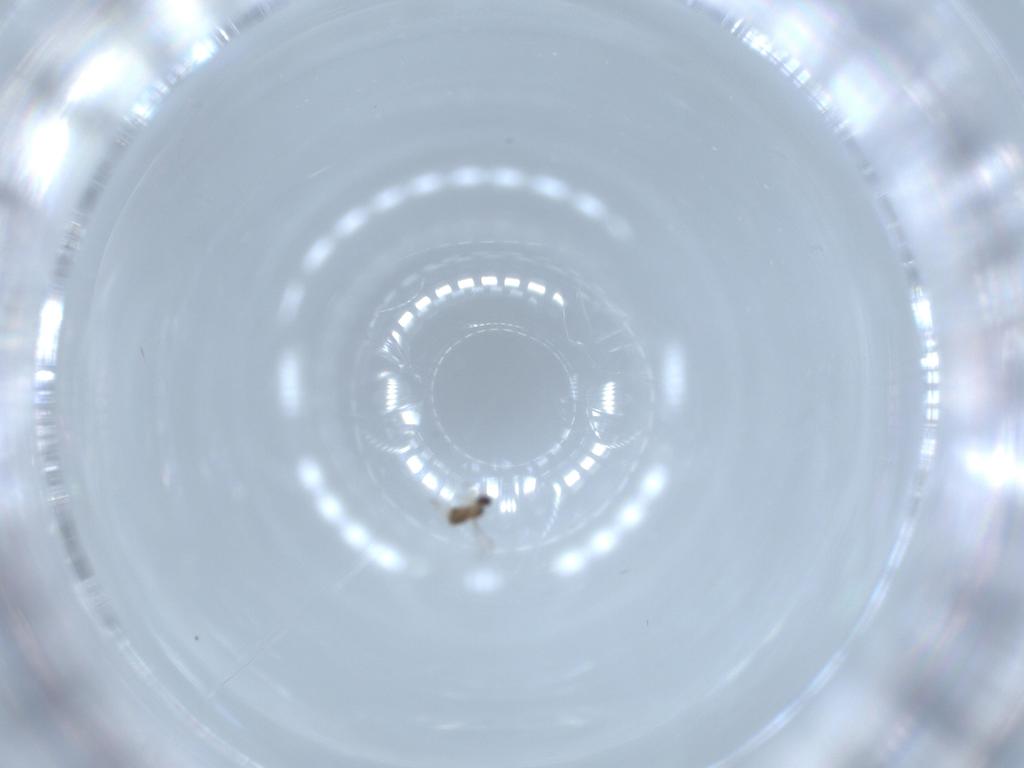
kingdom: Animalia
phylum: Arthropoda
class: Insecta
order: Hymenoptera
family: Mymaridae
